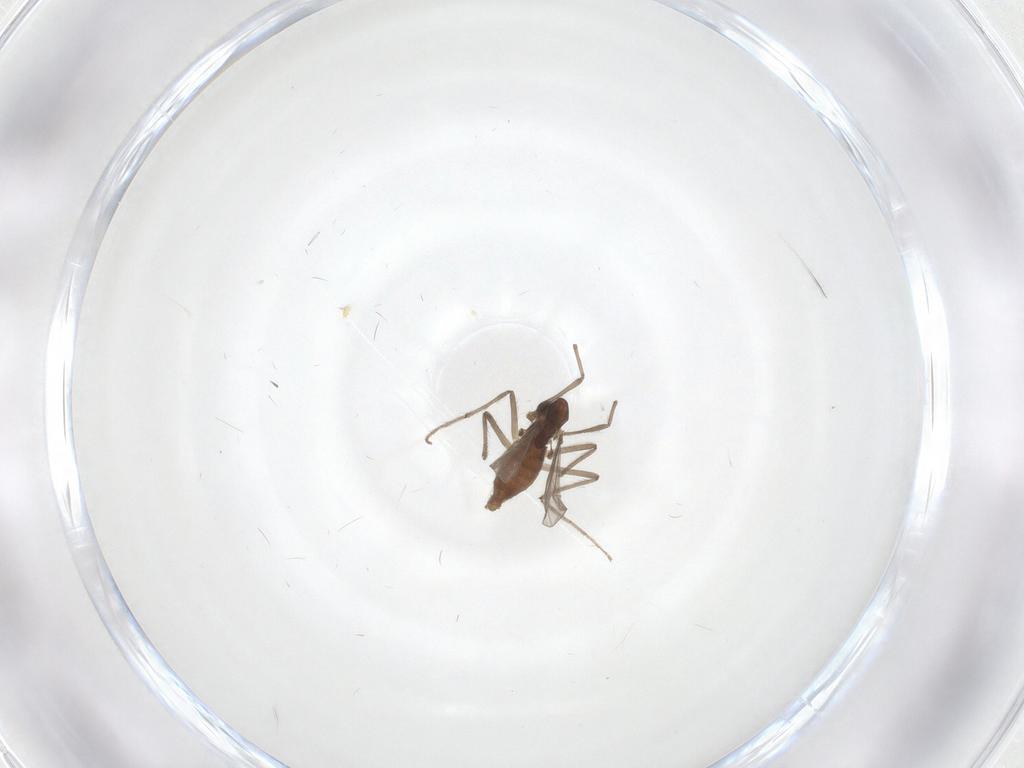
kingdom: Animalia
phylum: Arthropoda
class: Insecta
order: Diptera
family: Chironomidae
